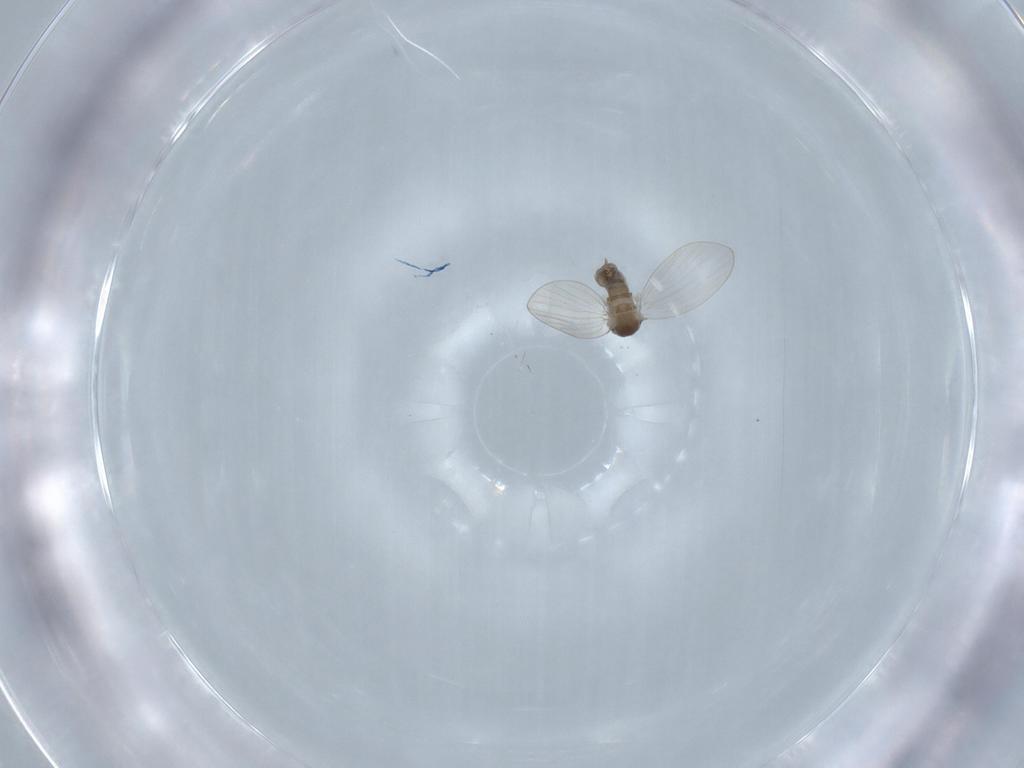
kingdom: Animalia
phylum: Arthropoda
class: Insecta
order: Diptera
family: Psychodidae
